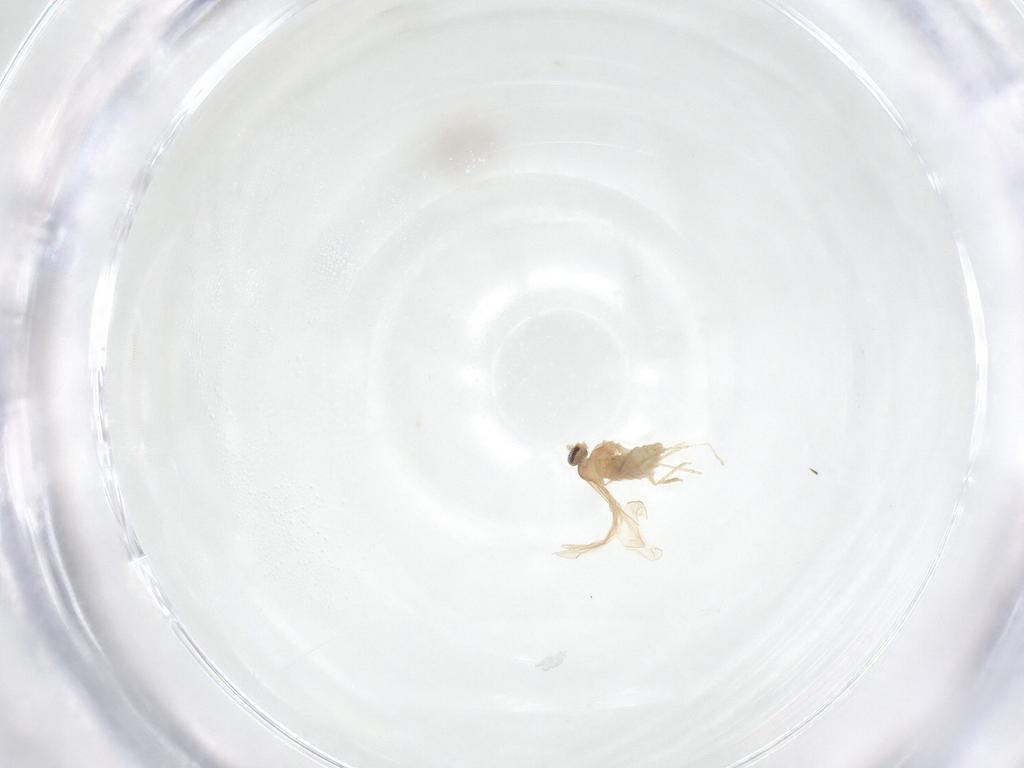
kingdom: Animalia
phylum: Arthropoda
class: Insecta
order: Diptera
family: Cecidomyiidae
